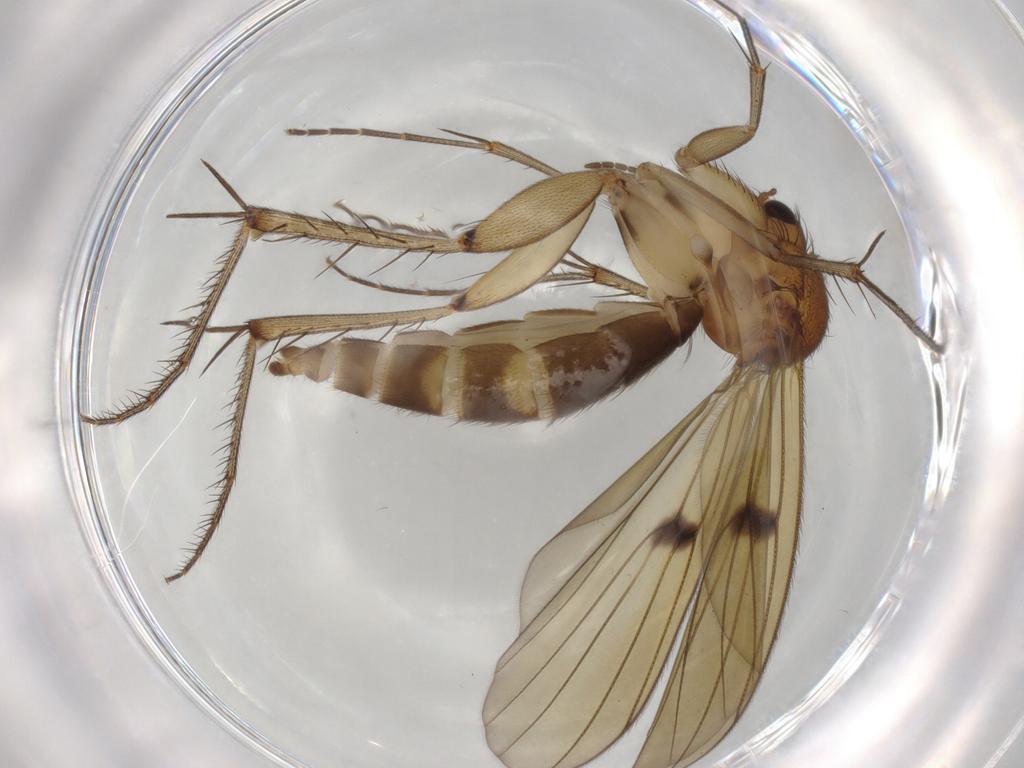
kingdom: Animalia
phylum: Arthropoda
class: Insecta
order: Diptera
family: Mycetophilidae
